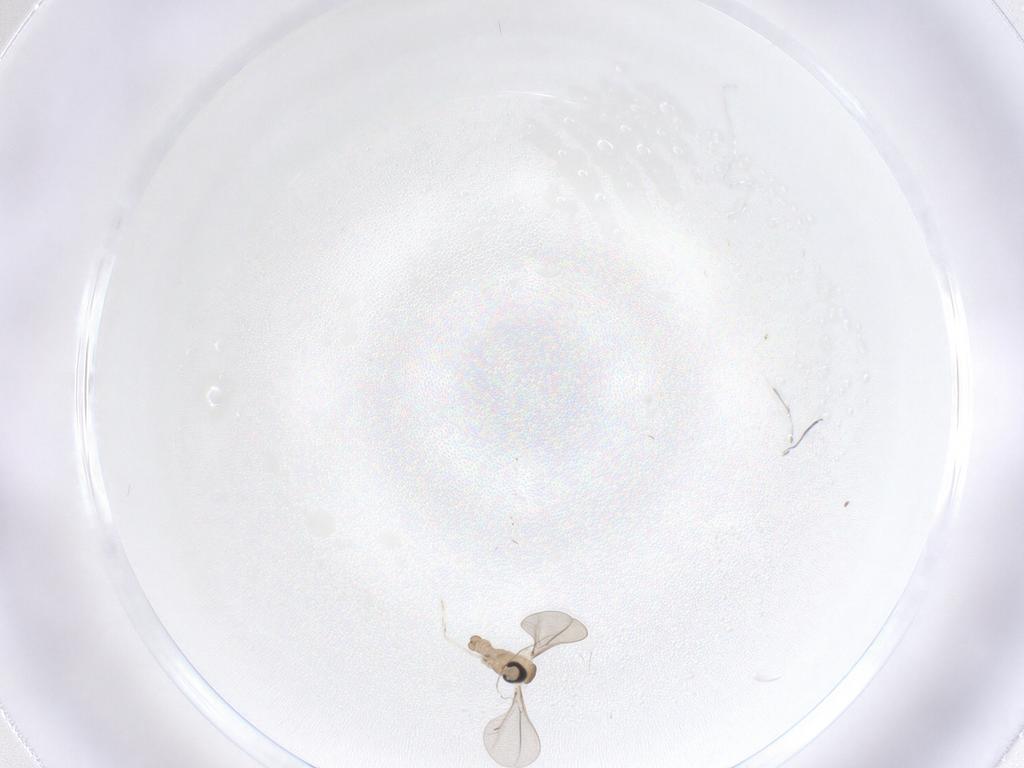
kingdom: Animalia
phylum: Arthropoda
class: Insecta
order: Diptera
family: Cecidomyiidae
